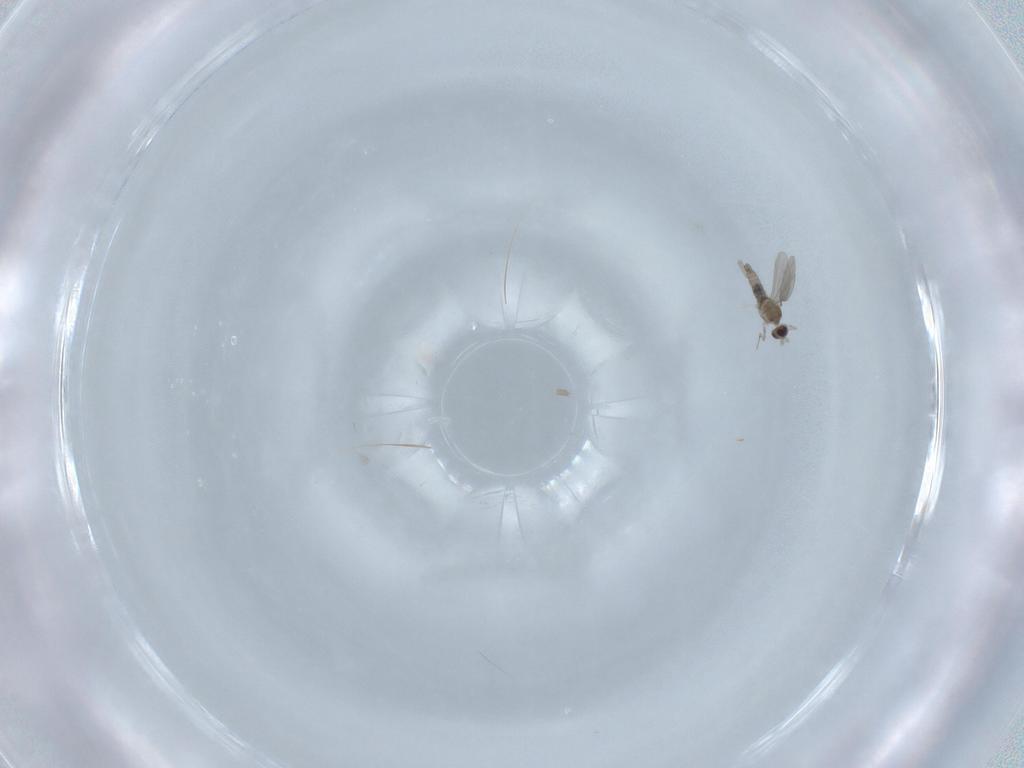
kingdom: Animalia
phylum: Arthropoda
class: Insecta
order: Diptera
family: Cecidomyiidae
